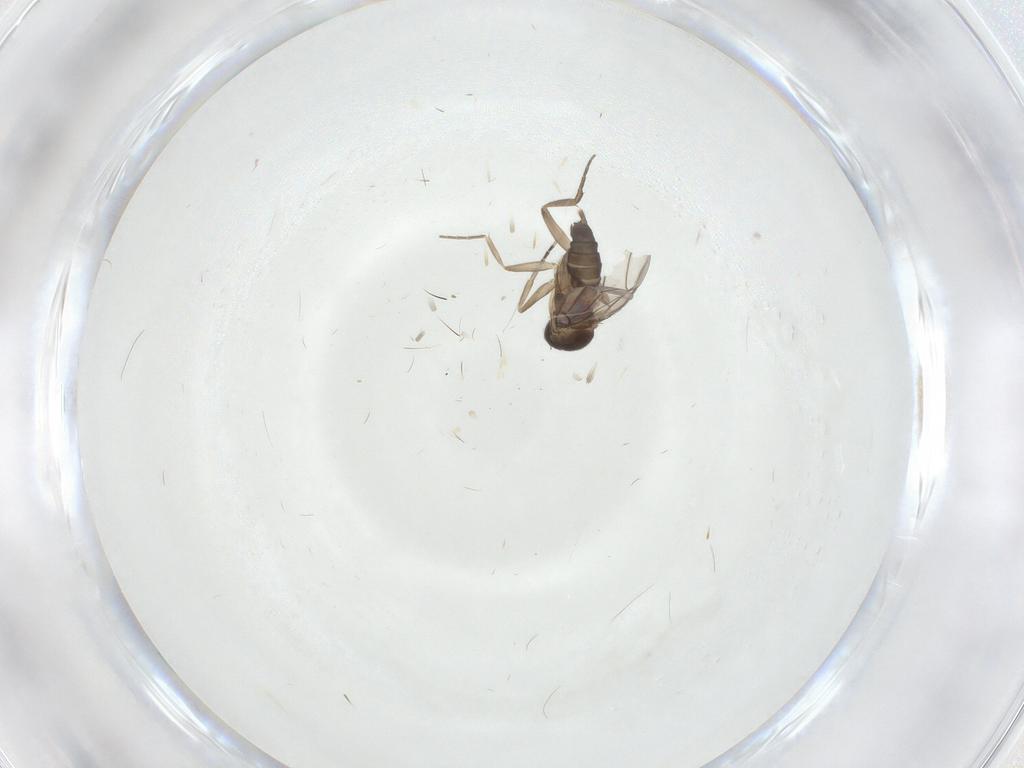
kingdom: Animalia
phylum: Arthropoda
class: Insecta
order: Diptera
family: Phoridae
